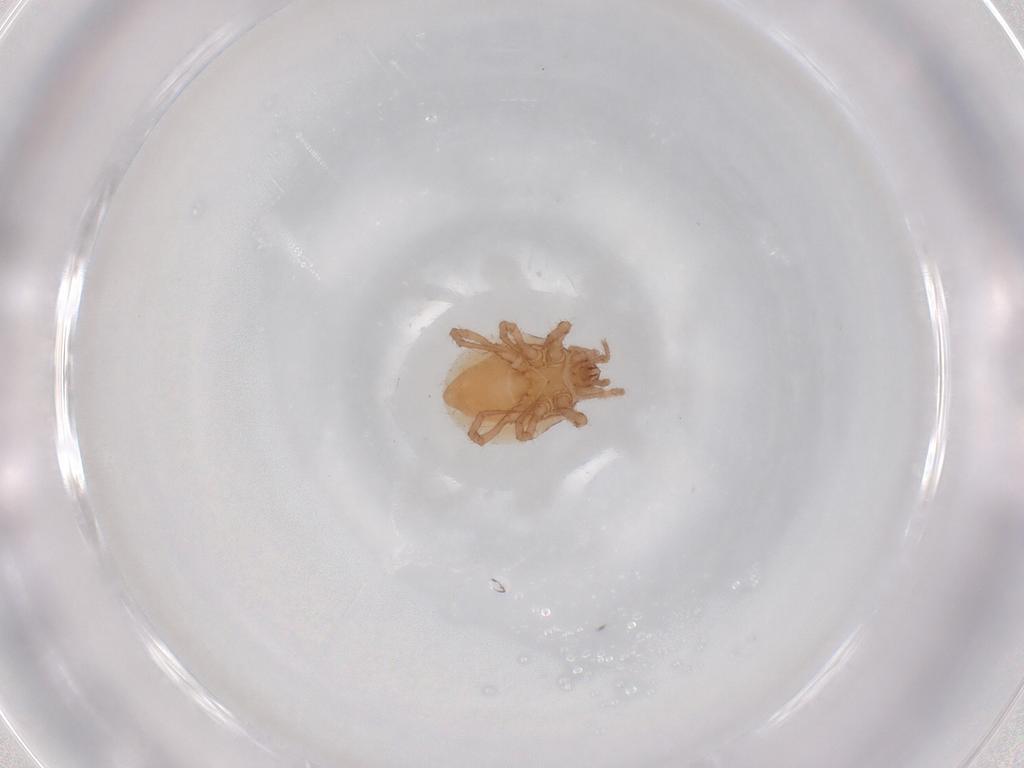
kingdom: Animalia
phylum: Arthropoda
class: Arachnida
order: Mesostigmata
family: Parasitidae
